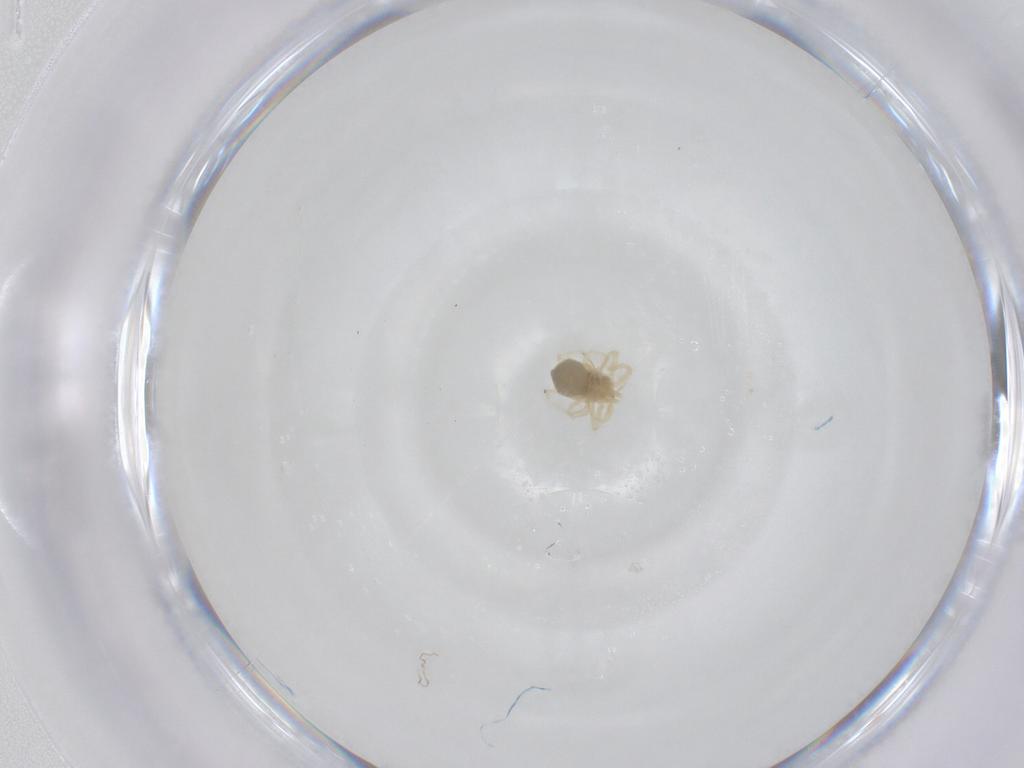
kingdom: Animalia
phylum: Arthropoda
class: Arachnida
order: Trombidiformes
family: Anystidae
